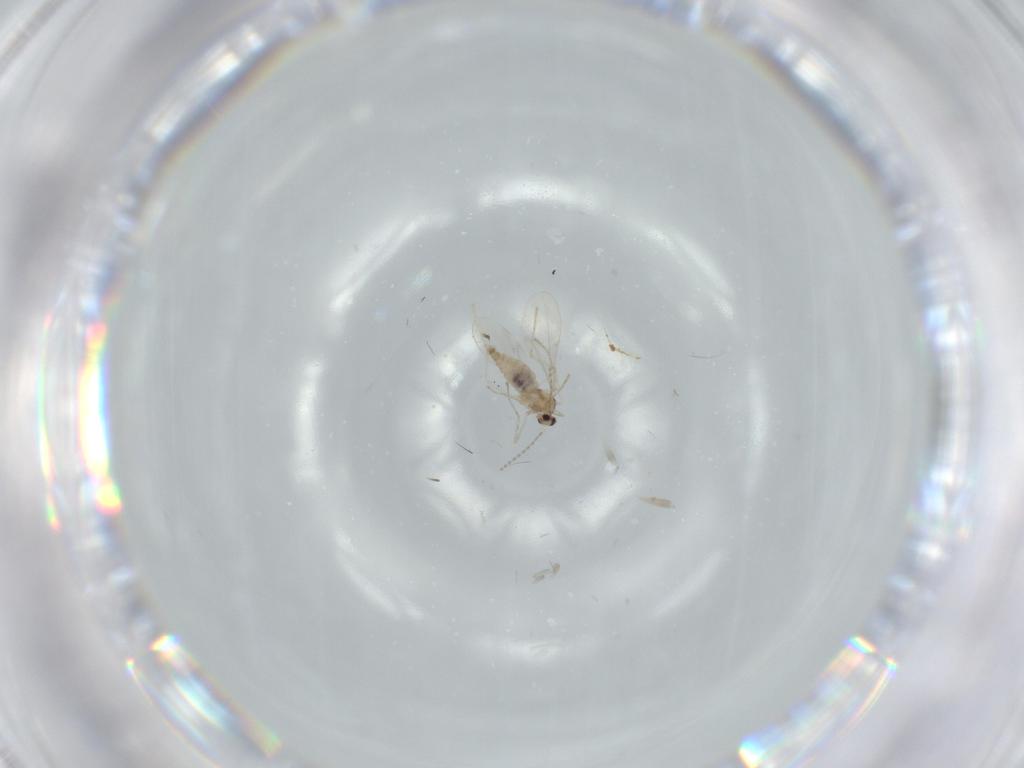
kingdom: Animalia
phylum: Arthropoda
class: Insecta
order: Diptera
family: Cecidomyiidae
